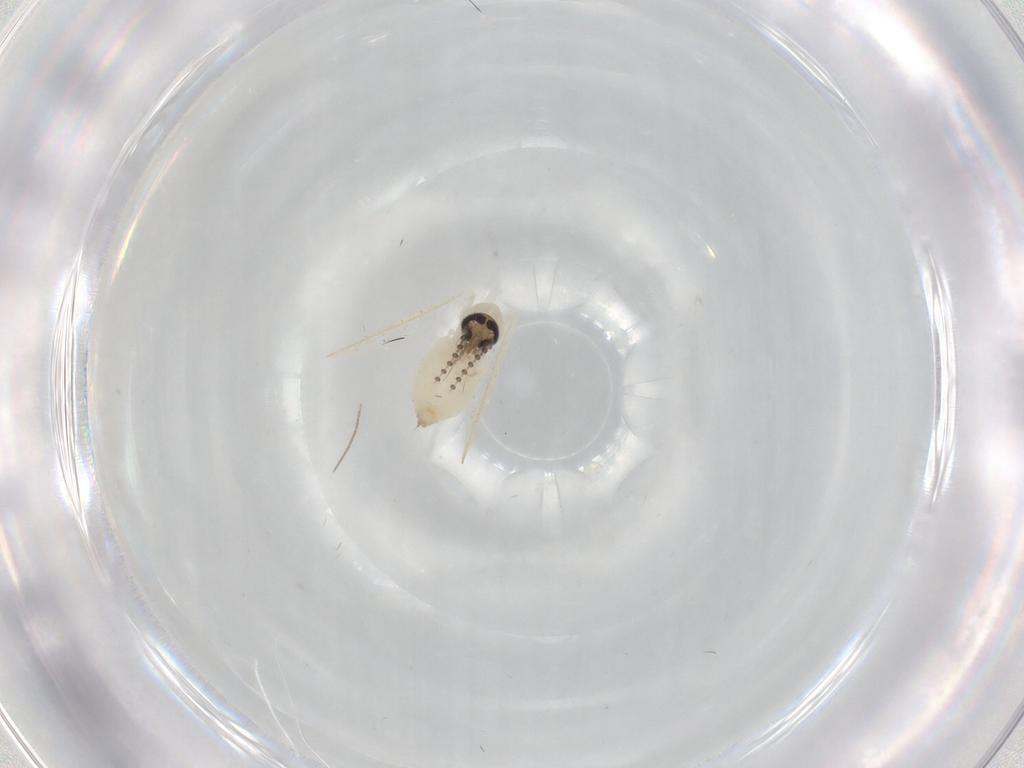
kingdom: Animalia
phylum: Arthropoda
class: Insecta
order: Diptera
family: Psychodidae
